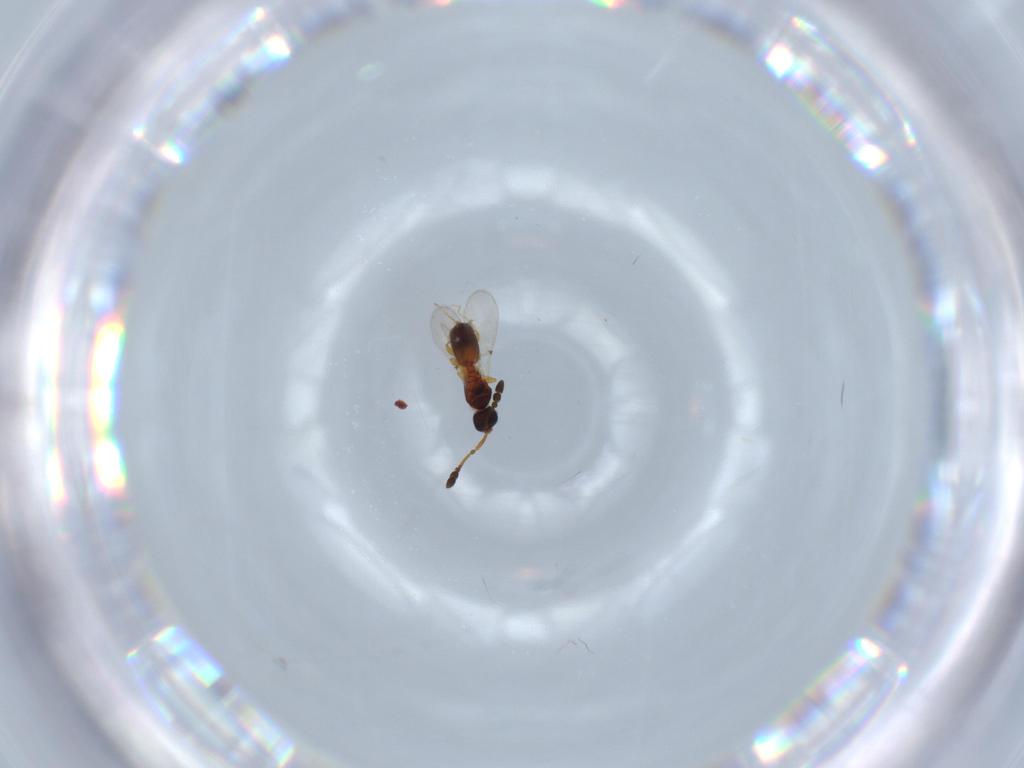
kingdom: Animalia
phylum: Arthropoda
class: Insecta
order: Hymenoptera
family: Diapriidae
